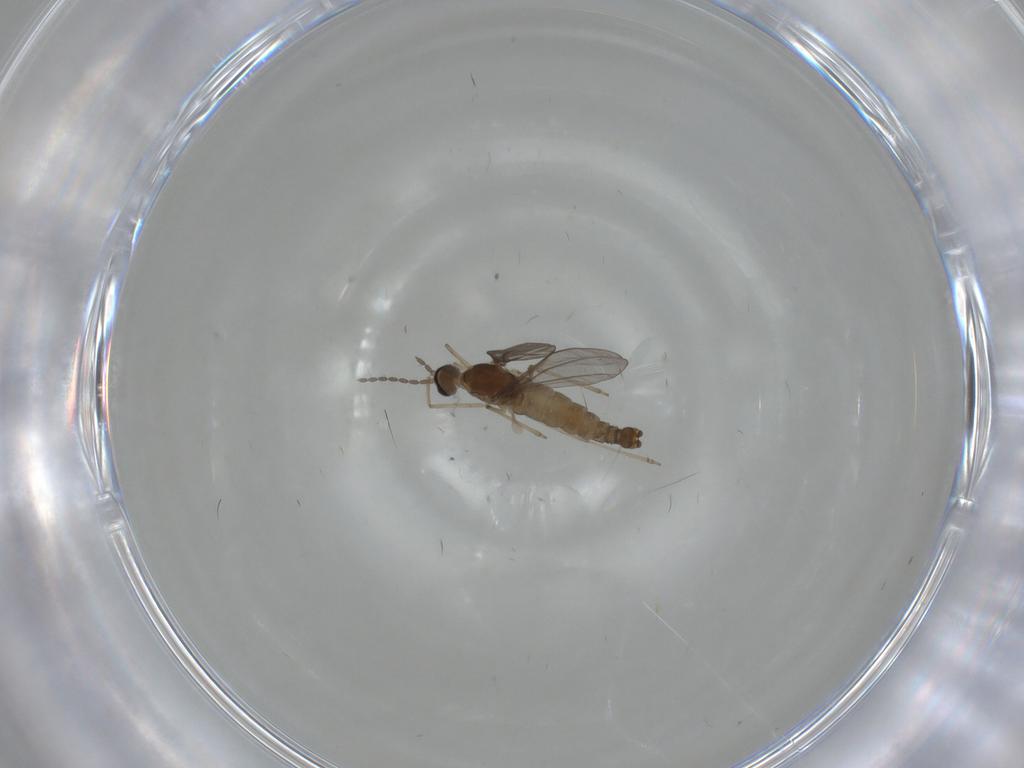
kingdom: Animalia
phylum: Arthropoda
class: Insecta
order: Diptera
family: Cecidomyiidae
